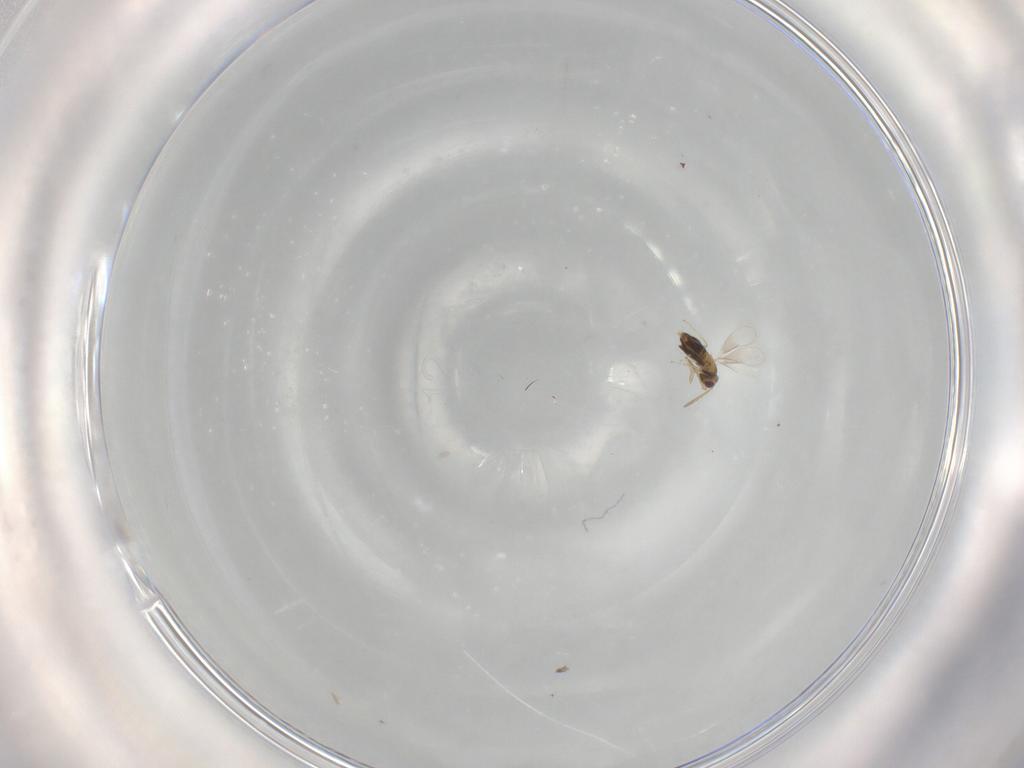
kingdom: Animalia
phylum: Arthropoda
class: Insecta
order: Hymenoptera
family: Aphelinidae
